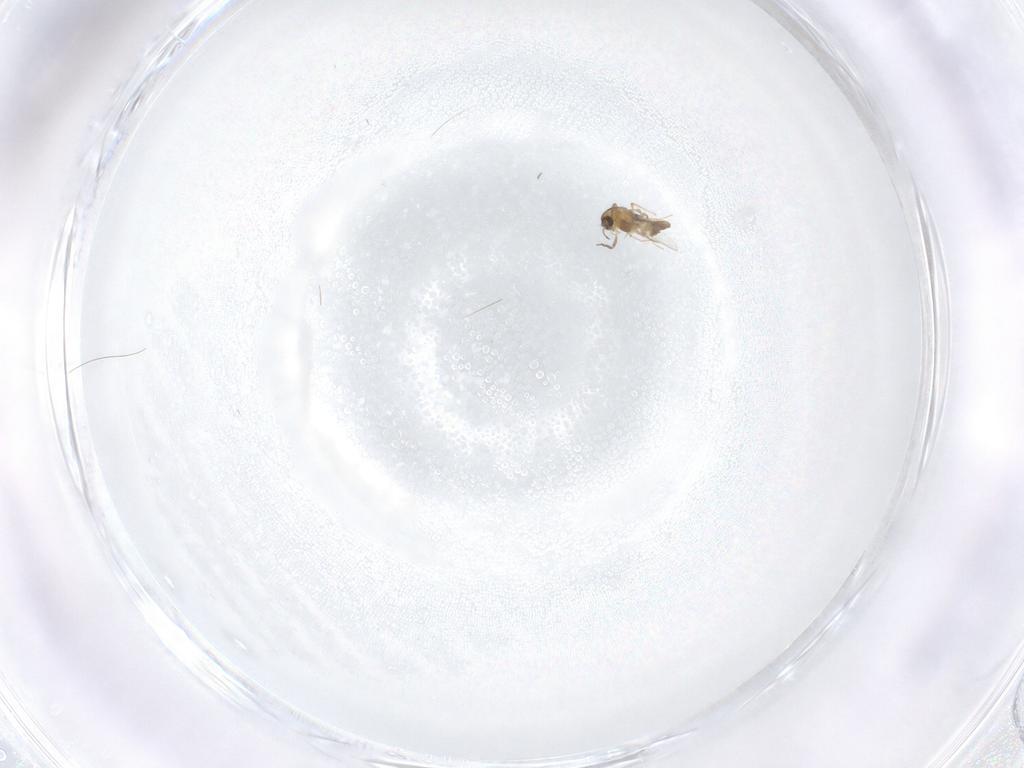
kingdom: Animalia
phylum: Arthropoda
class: Insecta
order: Diptera
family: Chironomidae
